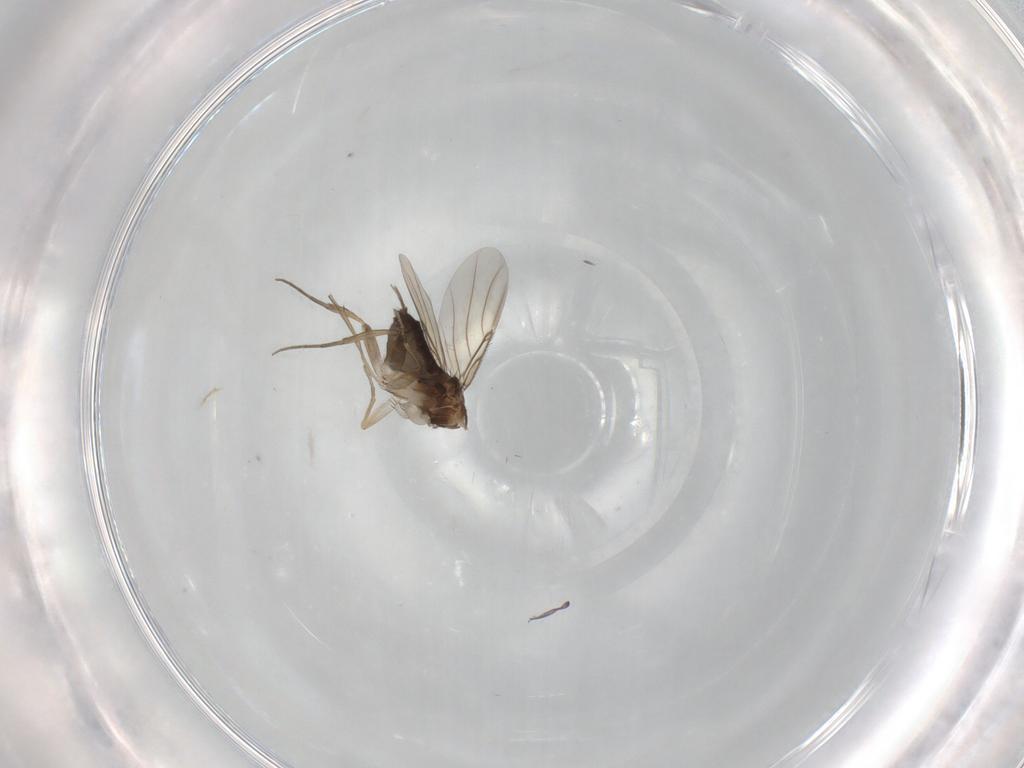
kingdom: Animalia
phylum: Arthropoda
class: Insecta
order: Diptera
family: Phoridae
